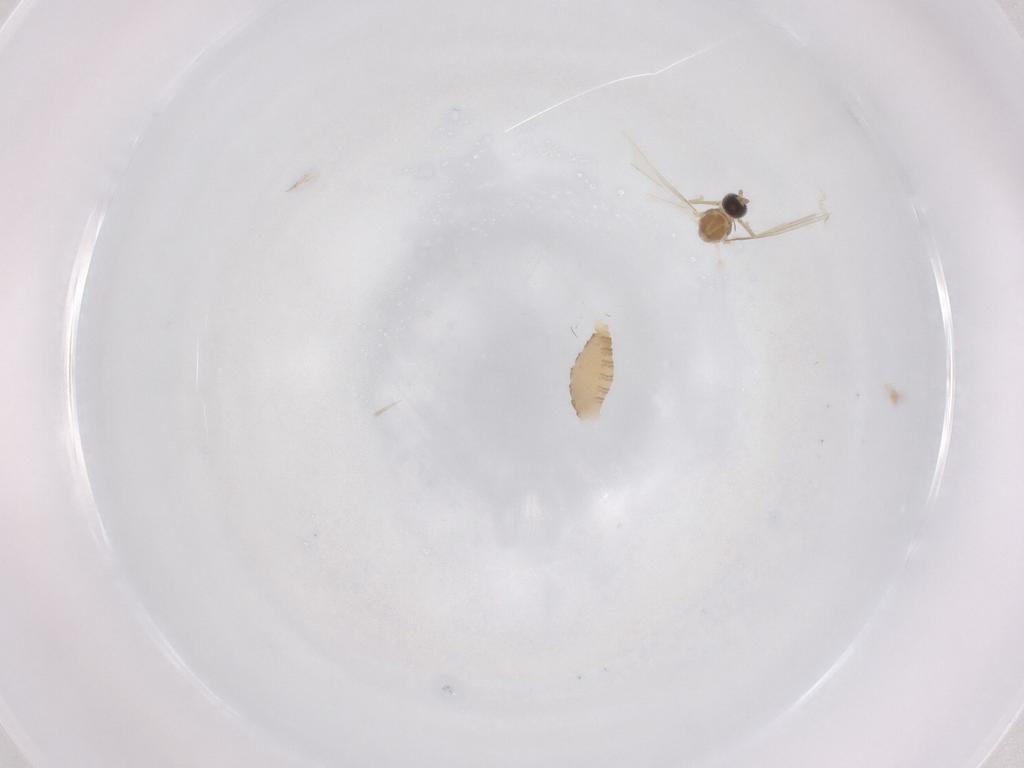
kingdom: Animalia
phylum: Arthropoda
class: Insecta
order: Diptera
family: Cecidomyiidae
